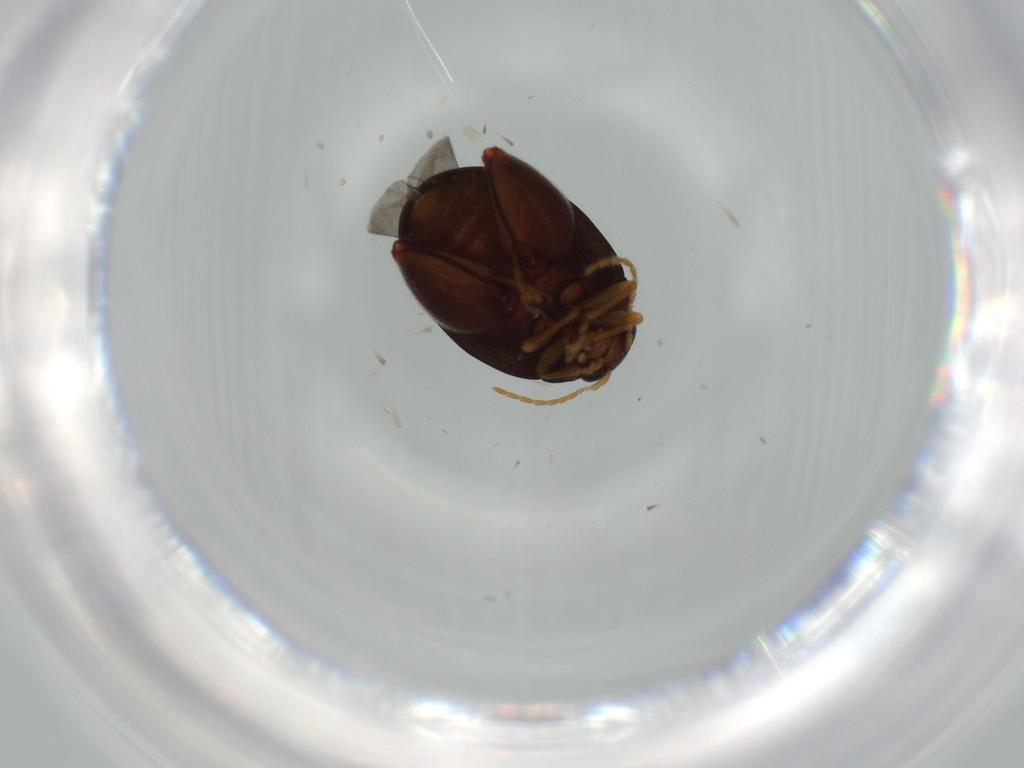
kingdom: Animalia
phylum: Arthropoda
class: Insecta
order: Coleoptera
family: Chrysomelidae
